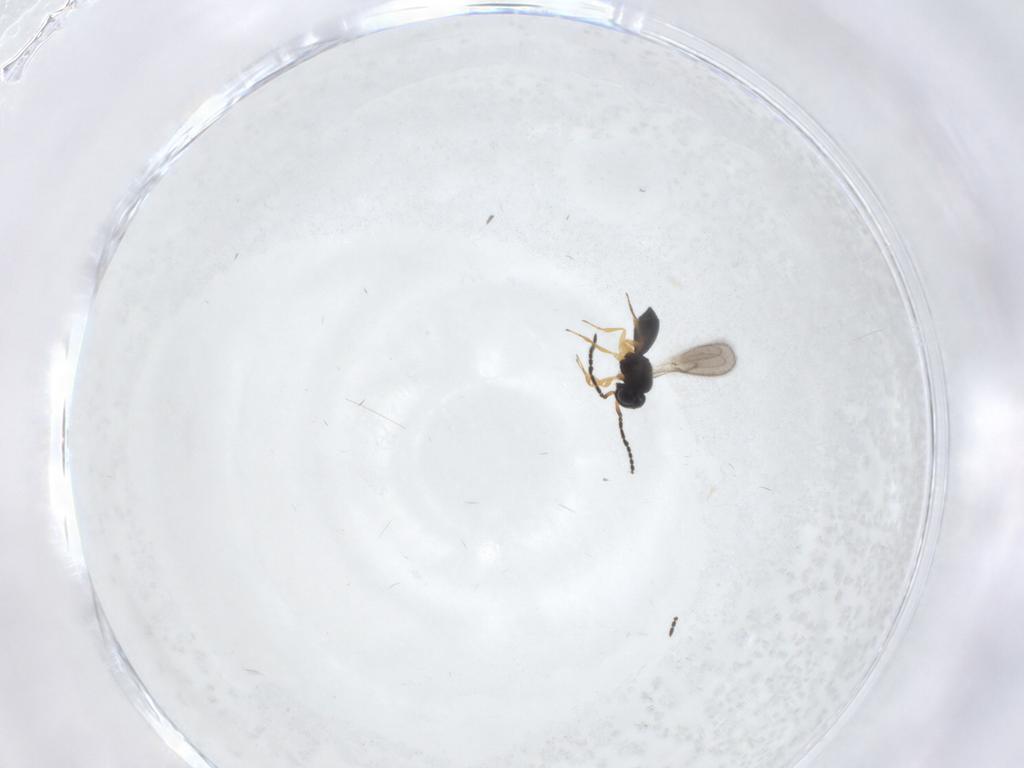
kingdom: Animalia
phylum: Arthropoda
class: Insecta
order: Hymenoptera
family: Scelionidae
